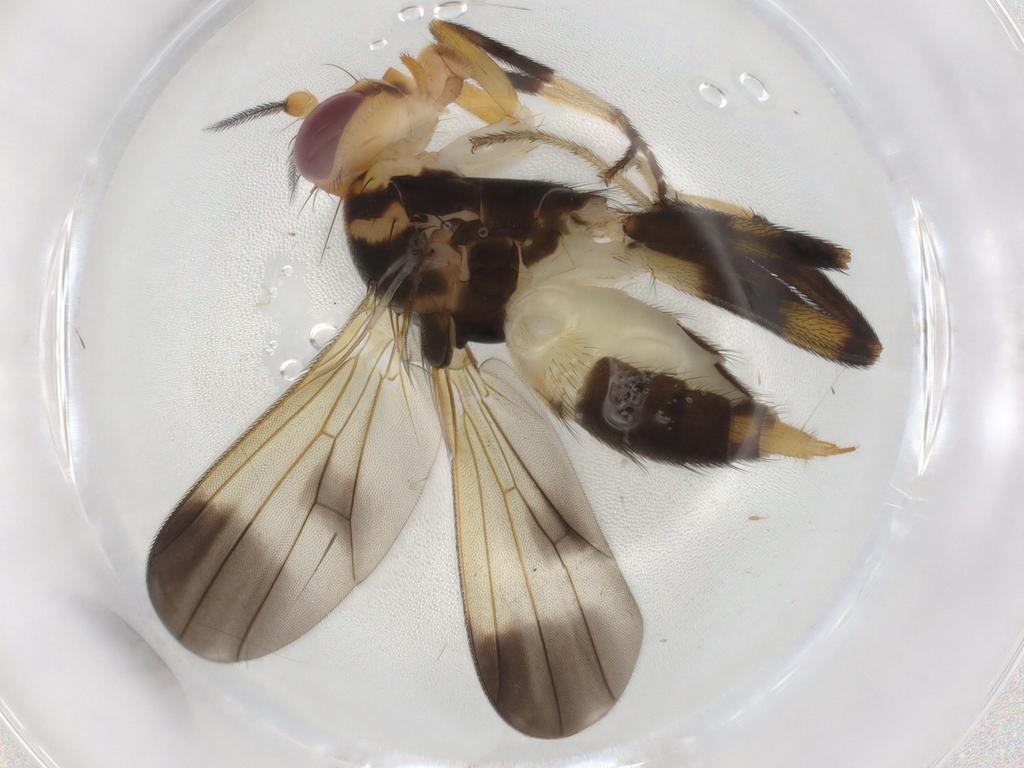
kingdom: Animalia
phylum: Arthropoda
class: Insecta
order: Diptera
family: Clusiidae
